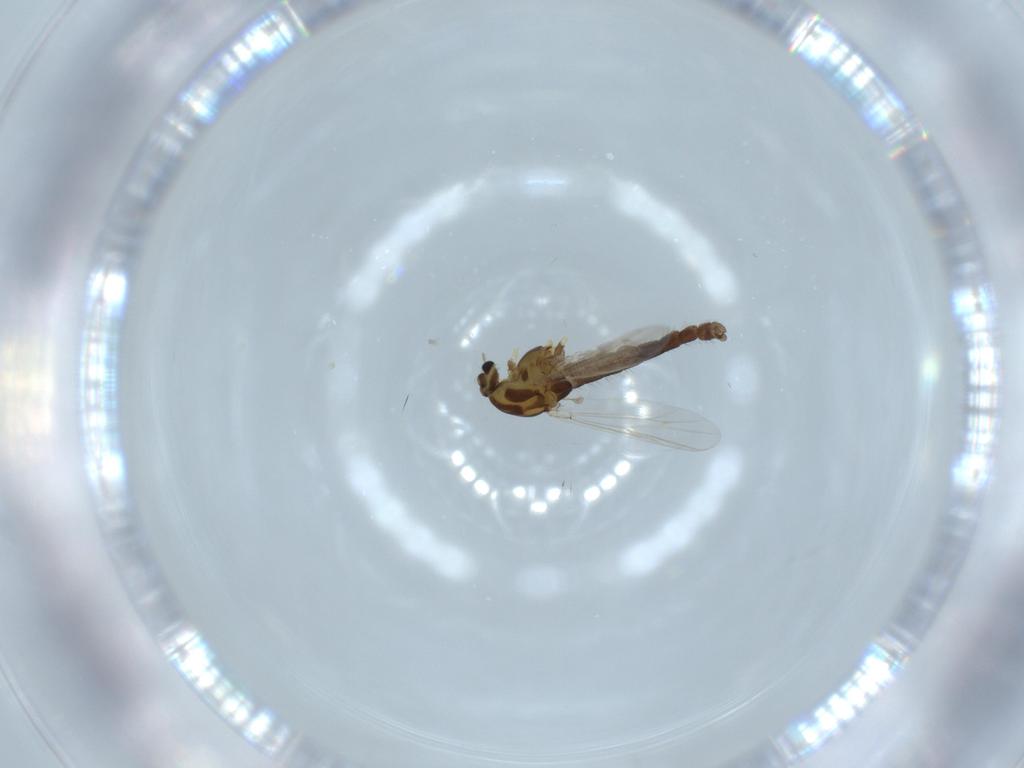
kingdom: Animalia
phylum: Arthropoda
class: Insecta
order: Diptera
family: Chironomidae
